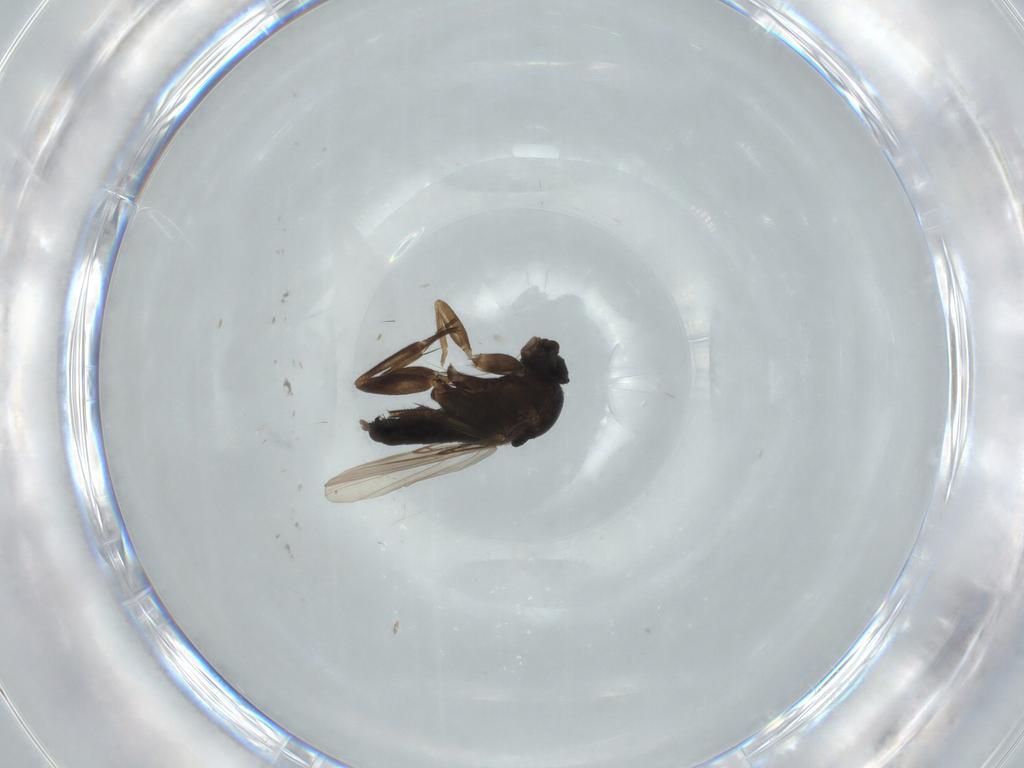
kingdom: Animalia
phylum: Arthropoda
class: Insecta
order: Diptera
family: Phoridae
